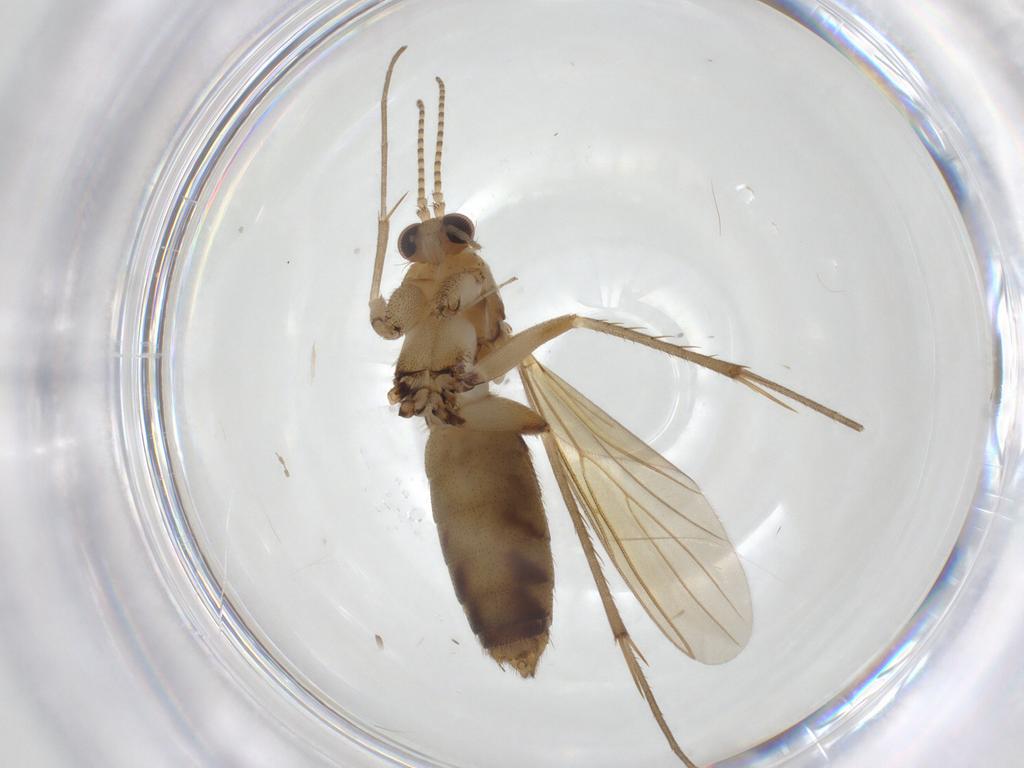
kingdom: Animalia
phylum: Arthropoda
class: Insecta
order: Diptera
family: Mycetophilidae
